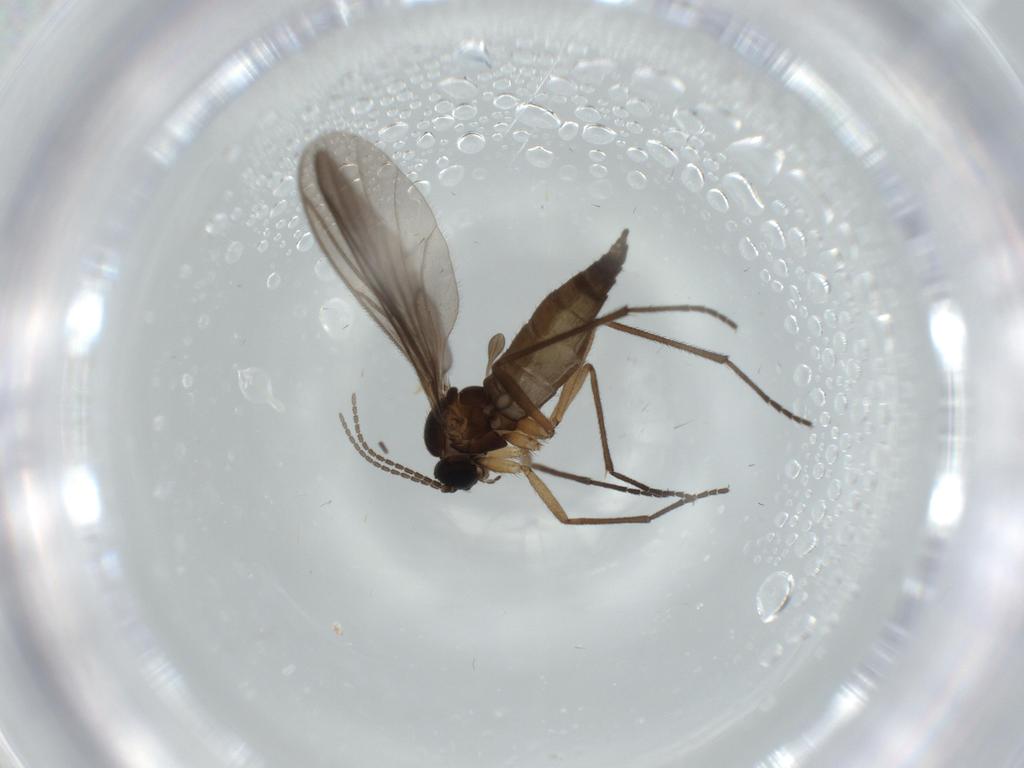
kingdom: Animalia
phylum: Arthropoda
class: Insecta
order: Diptera
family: Sciaridae
